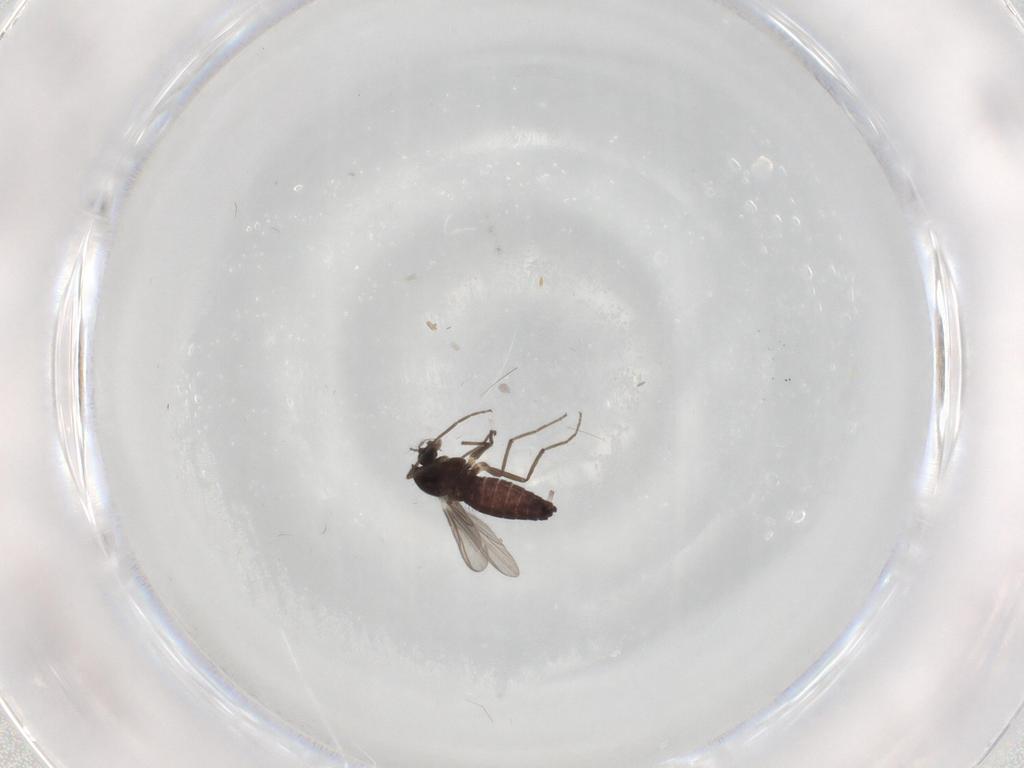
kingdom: Animalia
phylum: Arthropoda
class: Insecta
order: Diptera
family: Chironomidae
